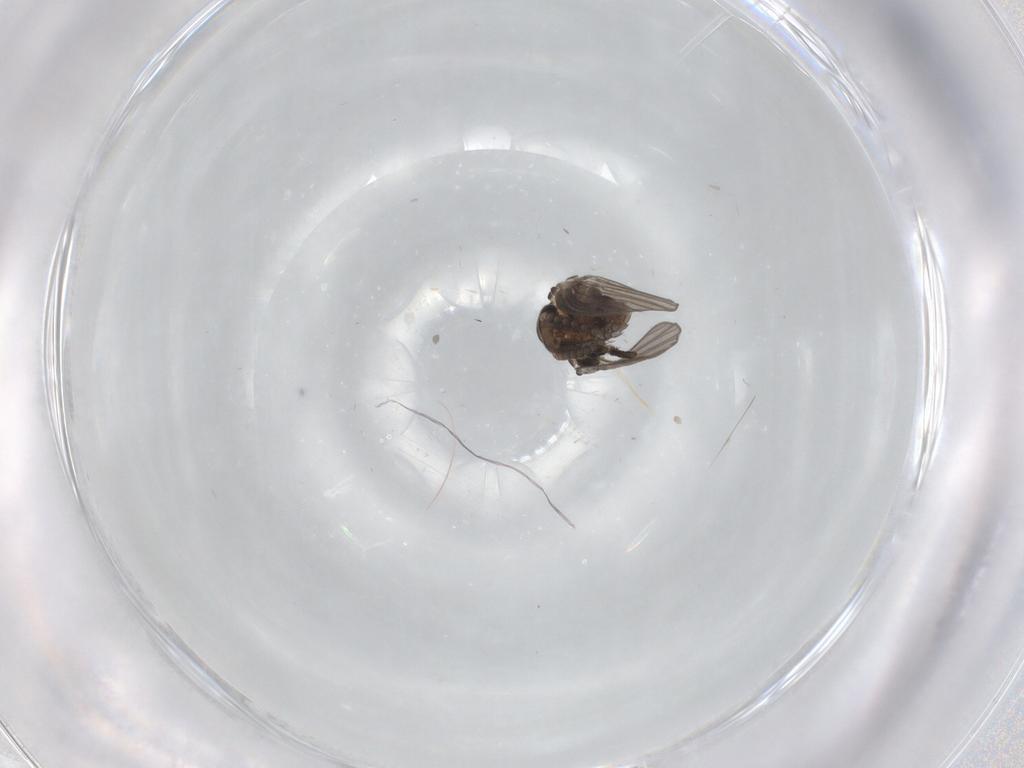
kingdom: Animalia
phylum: Arthropoda
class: Insecta
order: Diptera
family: Psychodidae
